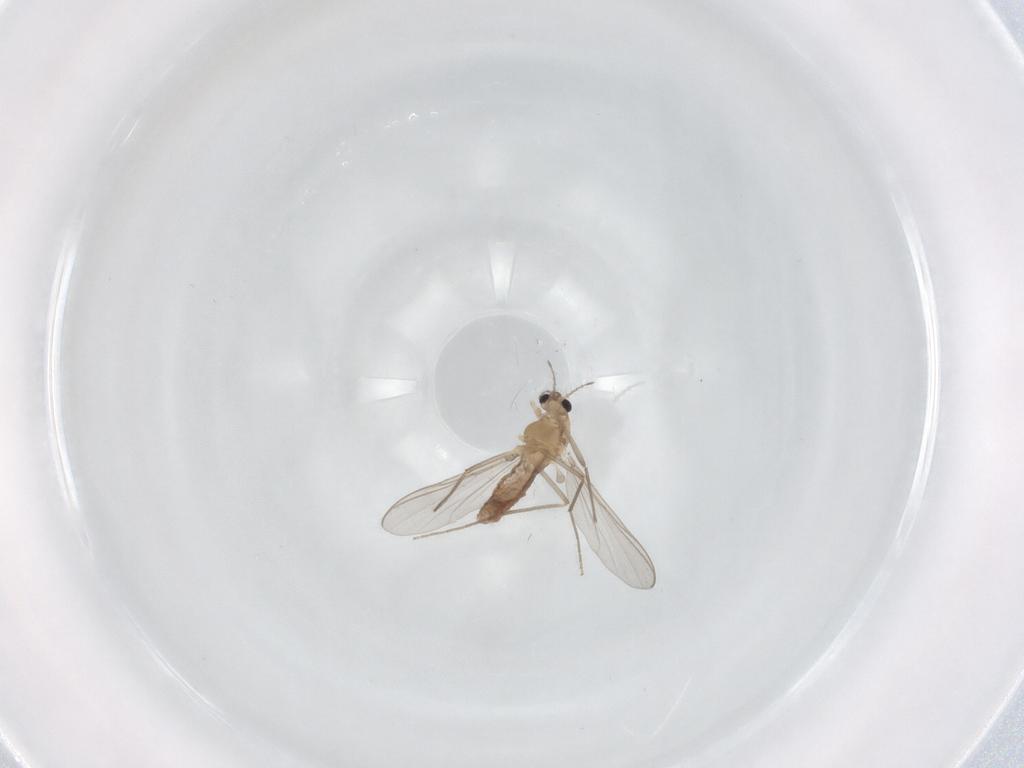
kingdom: Animalia
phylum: Arthropoda
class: Insecta
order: Diptera
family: Chironomidae
